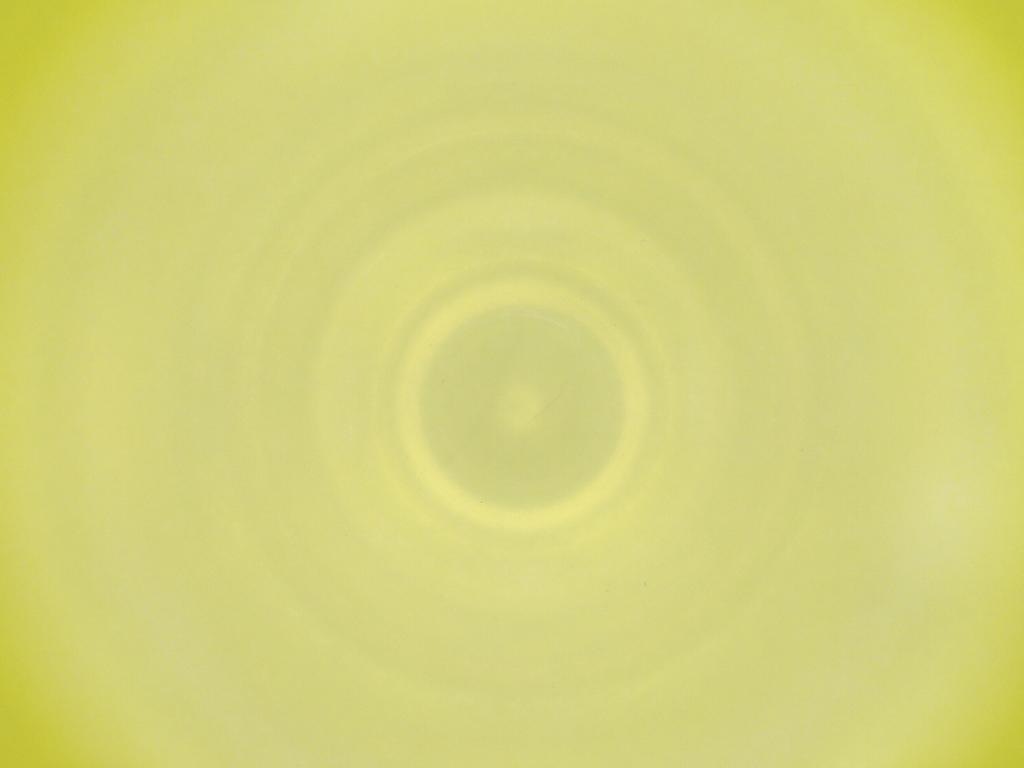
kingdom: Animalia
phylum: Arthropoda
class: Insecta
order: Diptera
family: Cecidomyiidae
